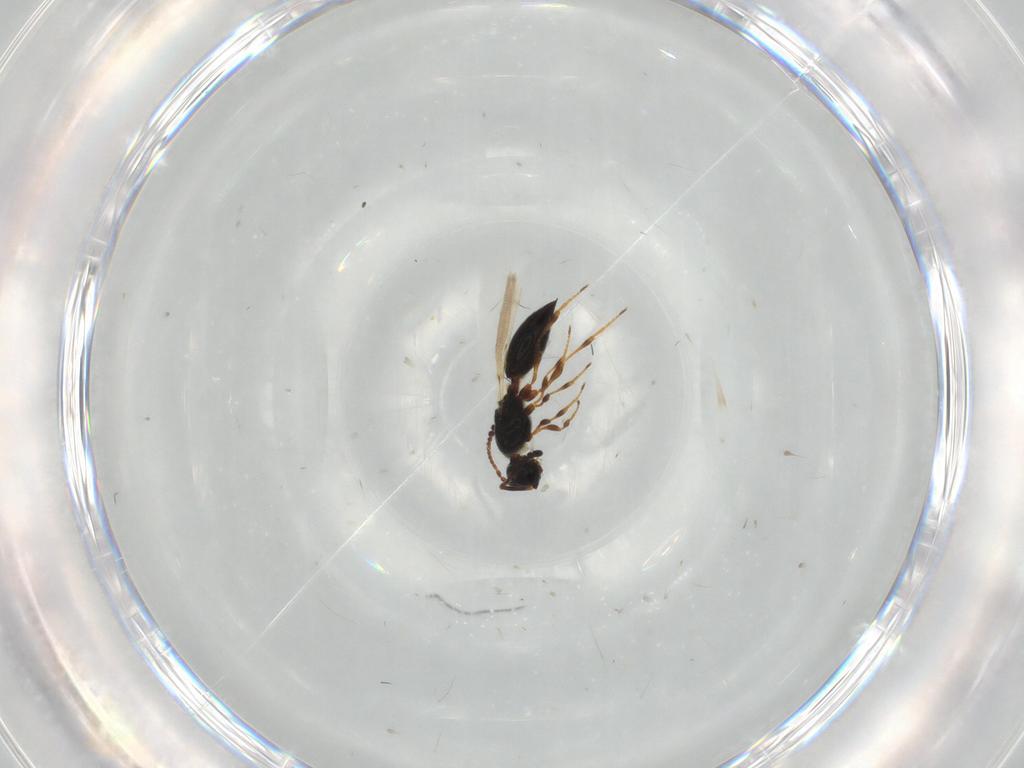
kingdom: Animalia
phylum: Arthropoda
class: Insecta
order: Hymenoptera
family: Diapriidae
